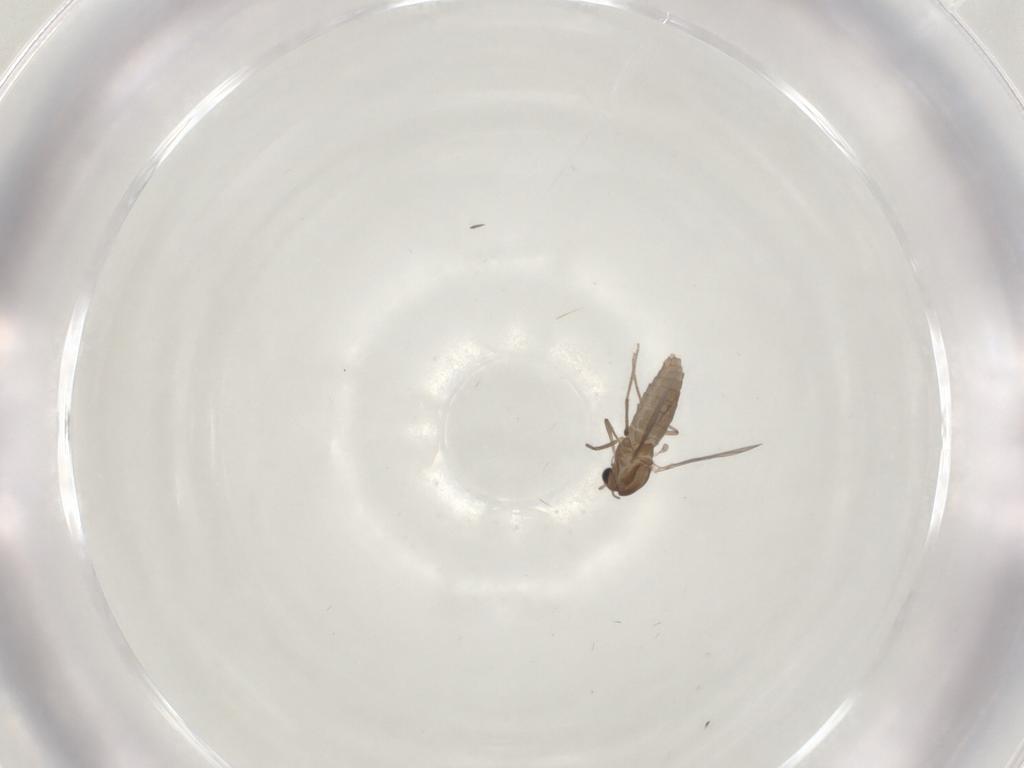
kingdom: Animalia
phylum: Arthropoda
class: Insecta
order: Diptera
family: Chironomidae
